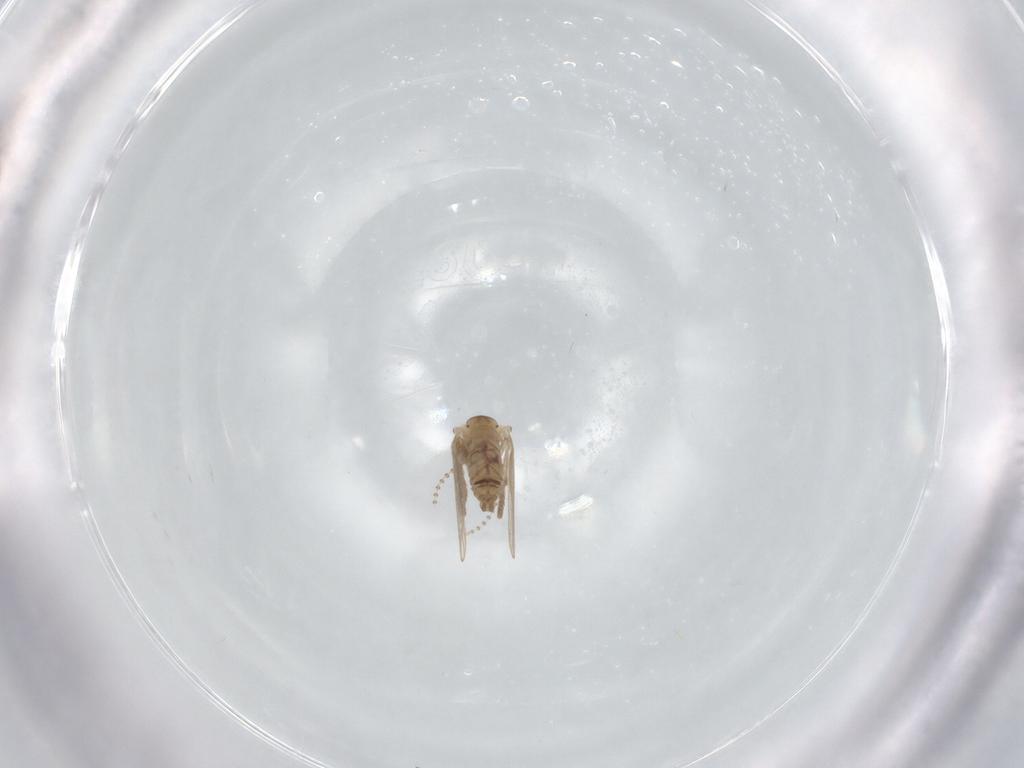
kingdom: Animalia
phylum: Arthropoda
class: Insecta
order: Diptera
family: Psychodidae
